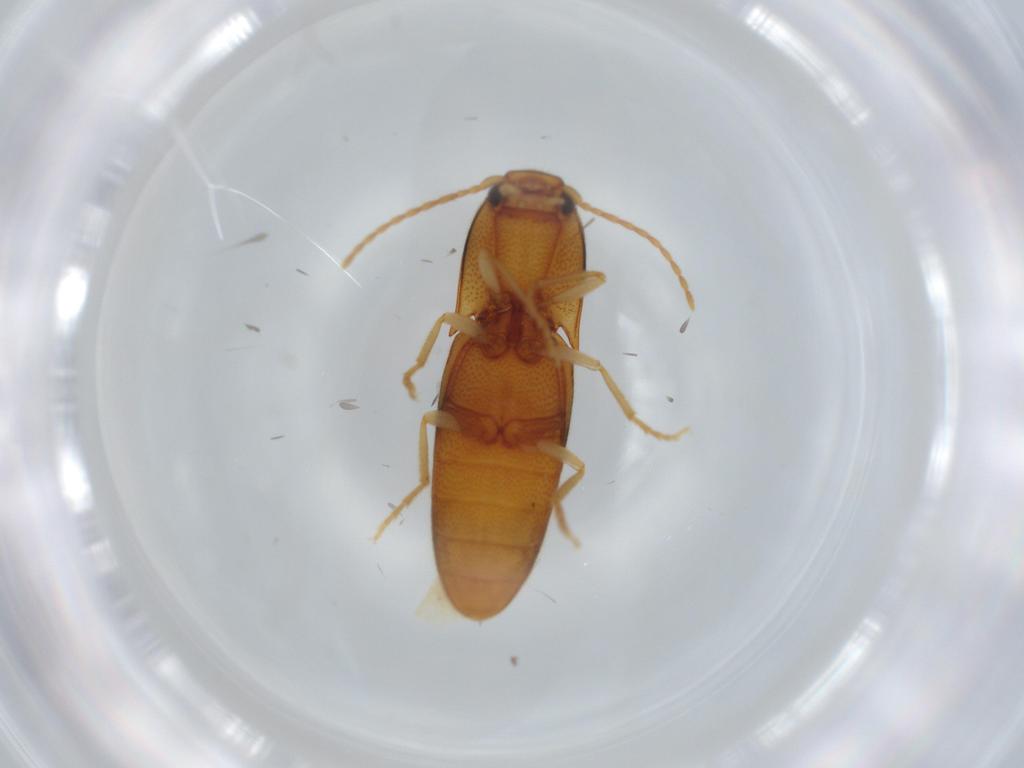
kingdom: Animalia
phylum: Arthropoda
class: Insecta
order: Coleoptera
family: Elateridae
